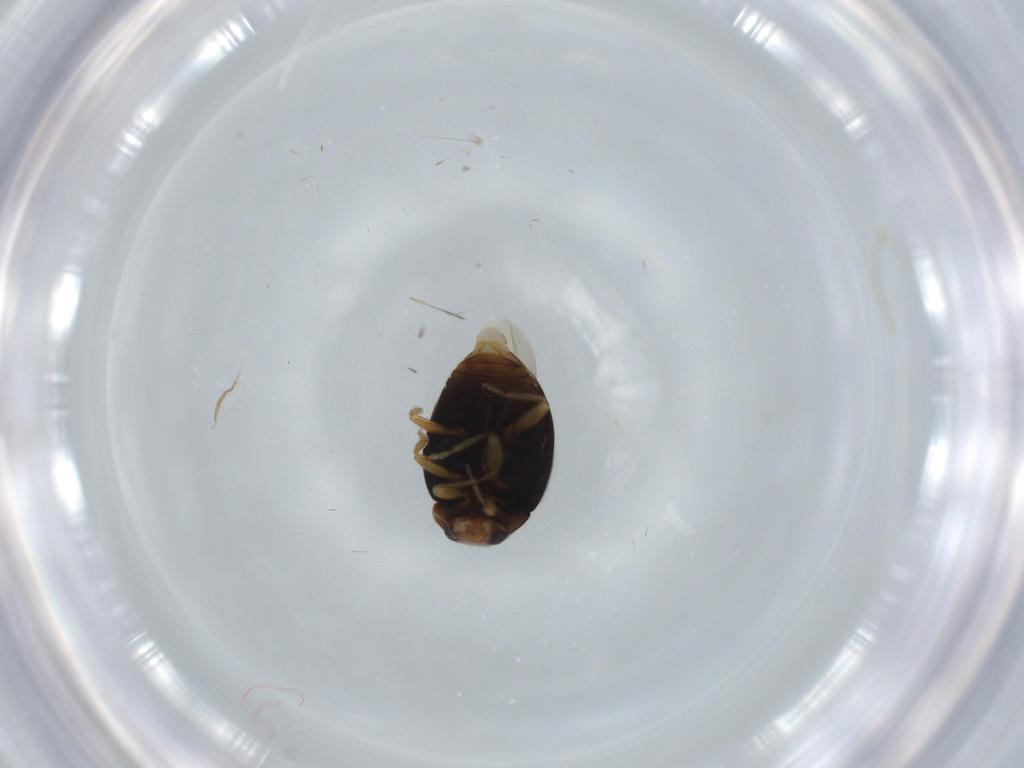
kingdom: Animalia
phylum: Arthropoda
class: Insecta
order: Coleoptera
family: Coccinellidae
